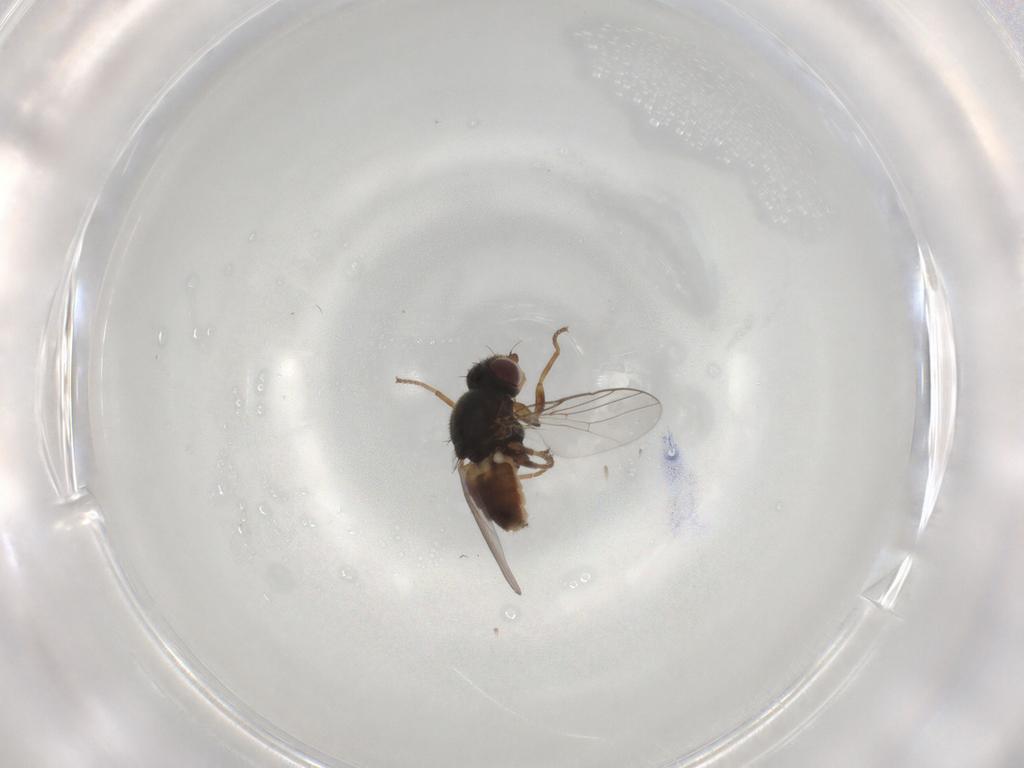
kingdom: Animalia
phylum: Arthropoda
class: Insecta
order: Diptera
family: Chloropidae
